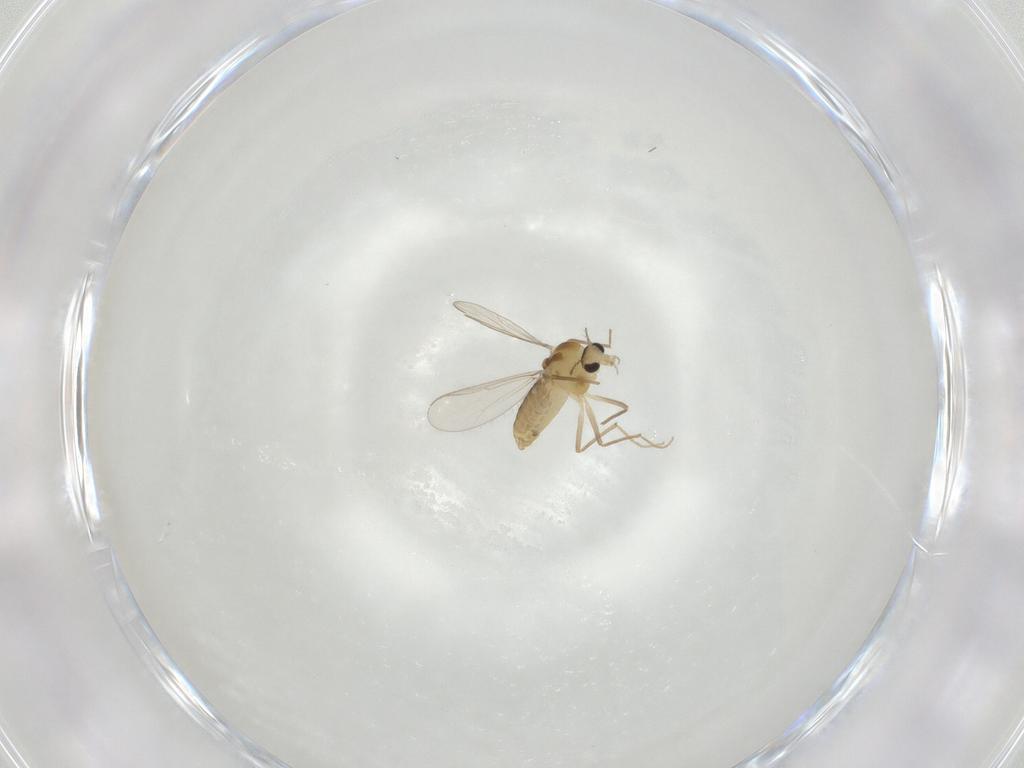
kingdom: Animalia
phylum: Arthropoda
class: Insecta
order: Diptera
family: Chironomidae
